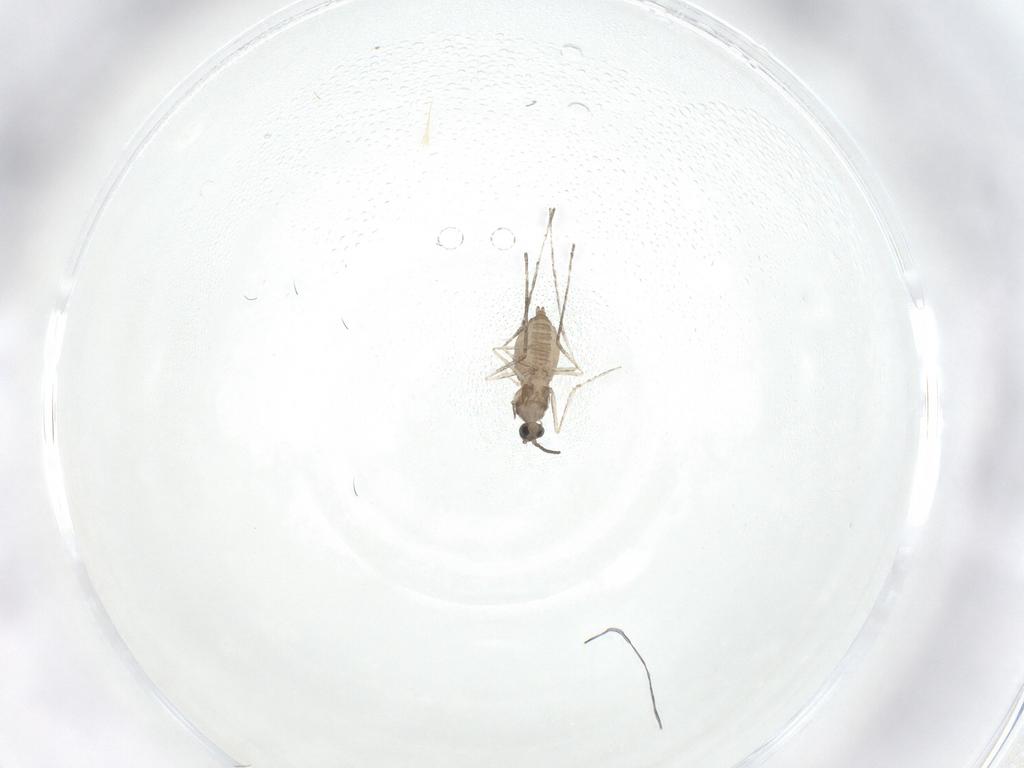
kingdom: Animalia
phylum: Arthropoda
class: Insecta
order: Diptera
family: Cecidomyiidae
